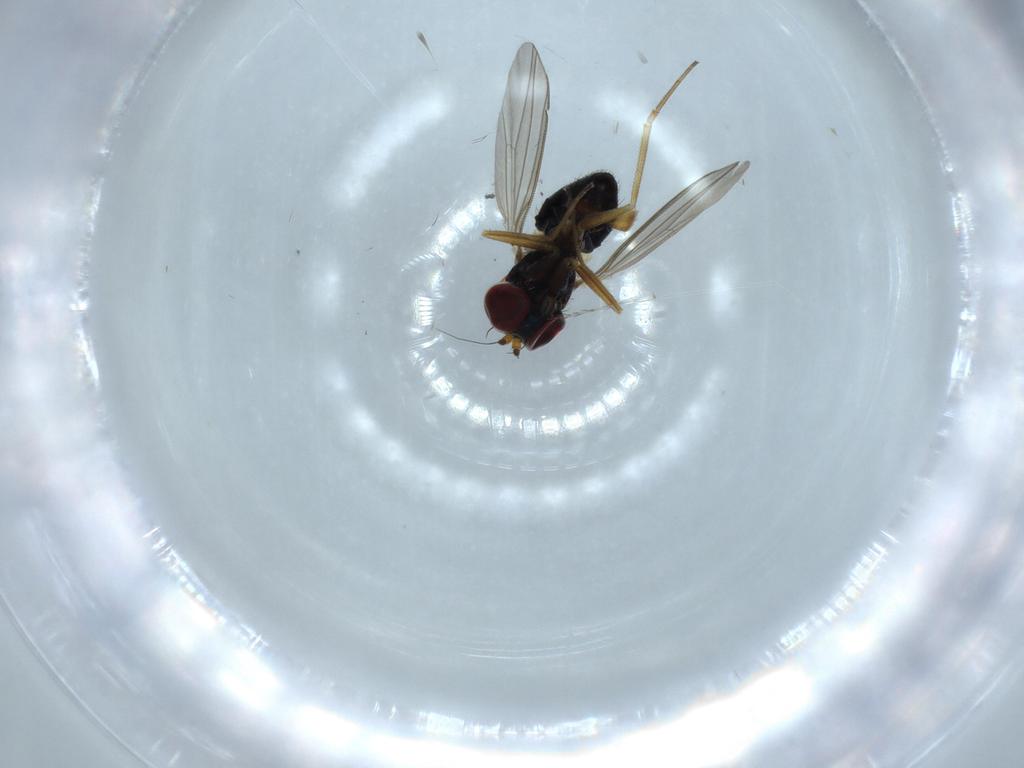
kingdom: Animalia
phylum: Arthropoda
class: Insecta
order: Diptera
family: Dolichopodidae
